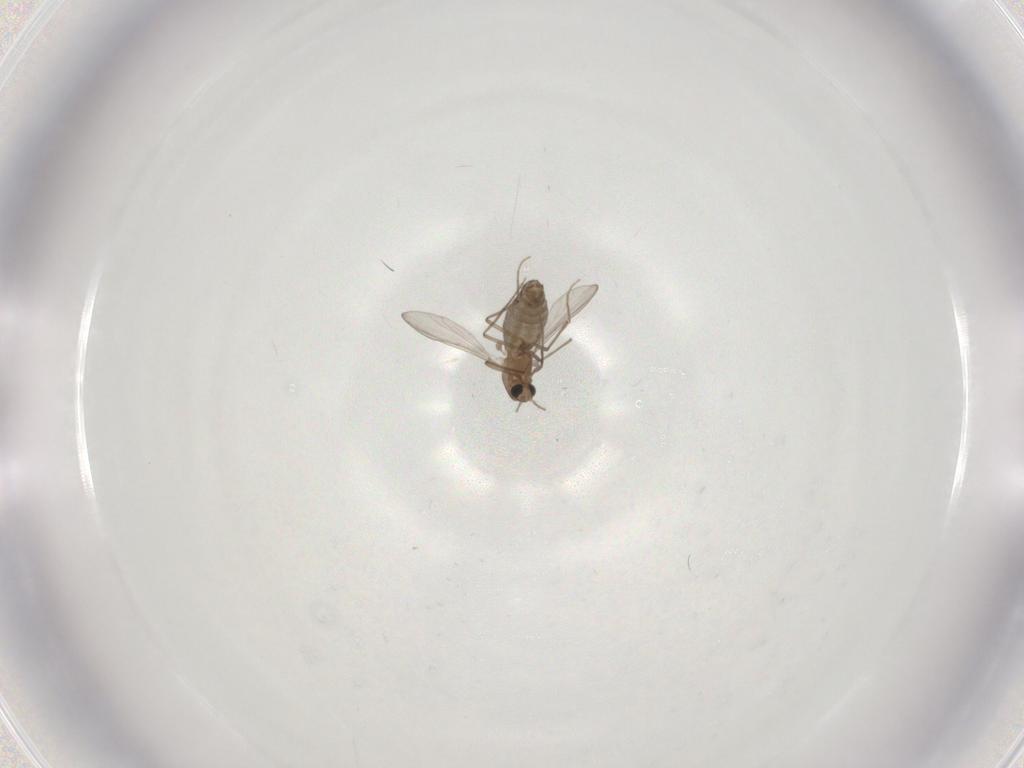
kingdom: Animalia
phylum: Arthropoda
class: Insecta
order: Diptera
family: Chironomidae
